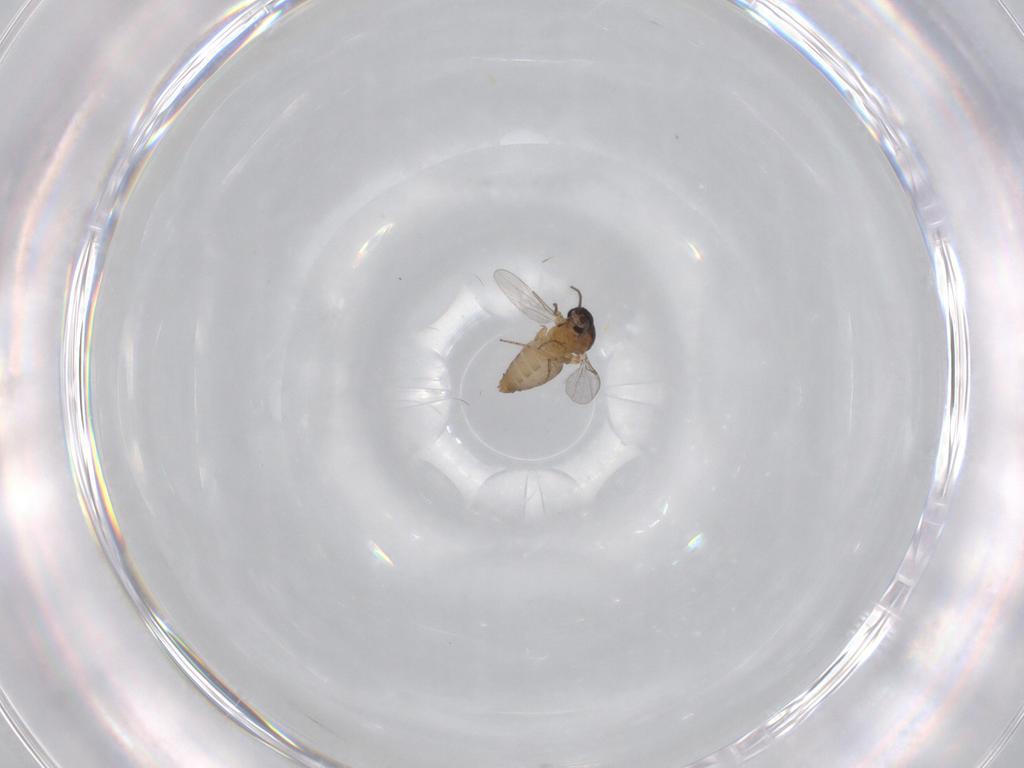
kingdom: Animalia
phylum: Arthropoda
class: Insecta
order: Diptera
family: Ceratopogonidae
